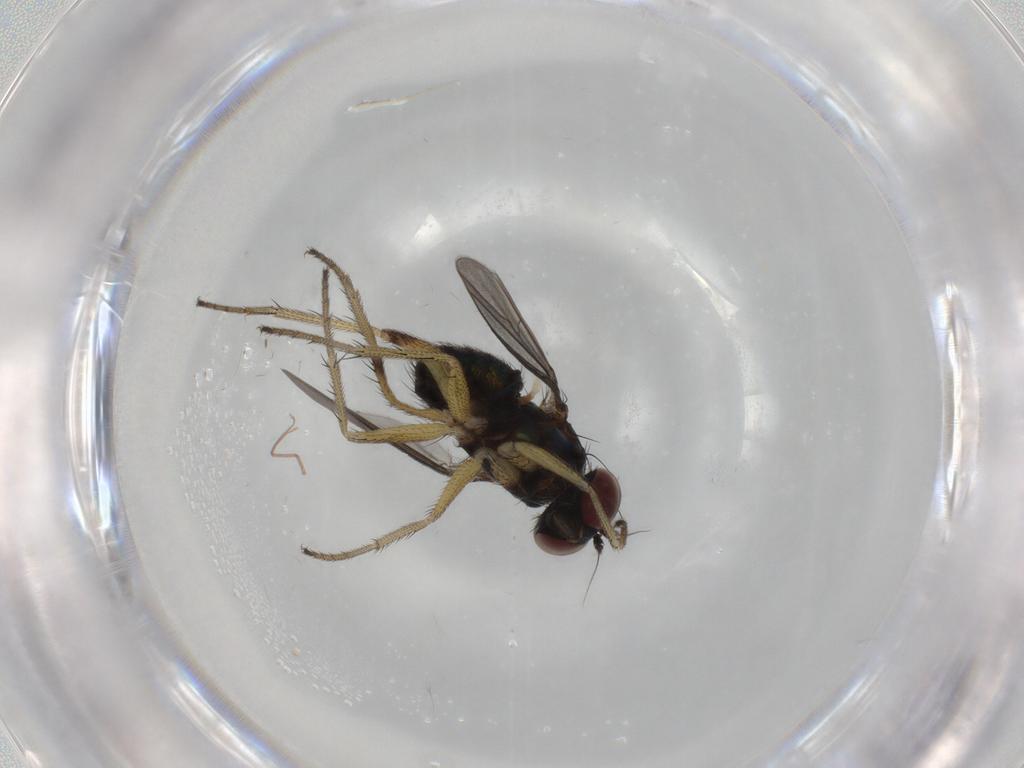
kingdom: Animalia
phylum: Arthropoda
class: Insecta
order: Diptera
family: Dolichopodidae
